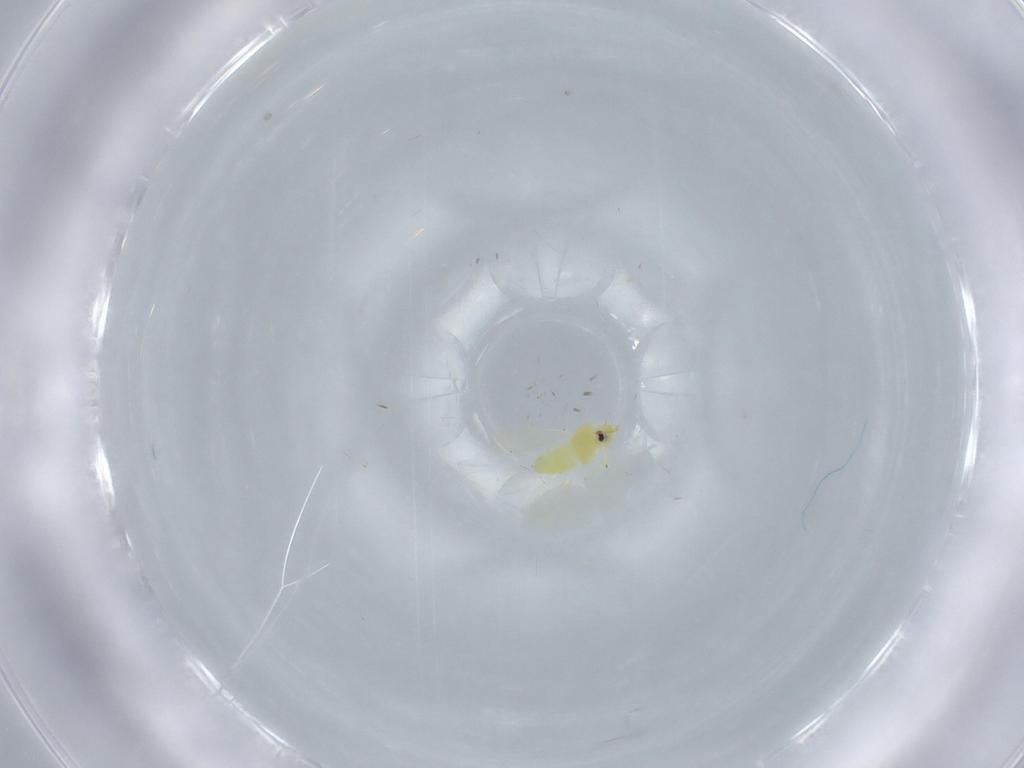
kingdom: Animalia
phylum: Arthropoda
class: Insecta
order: Hemiptera
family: Aleyrodidae
